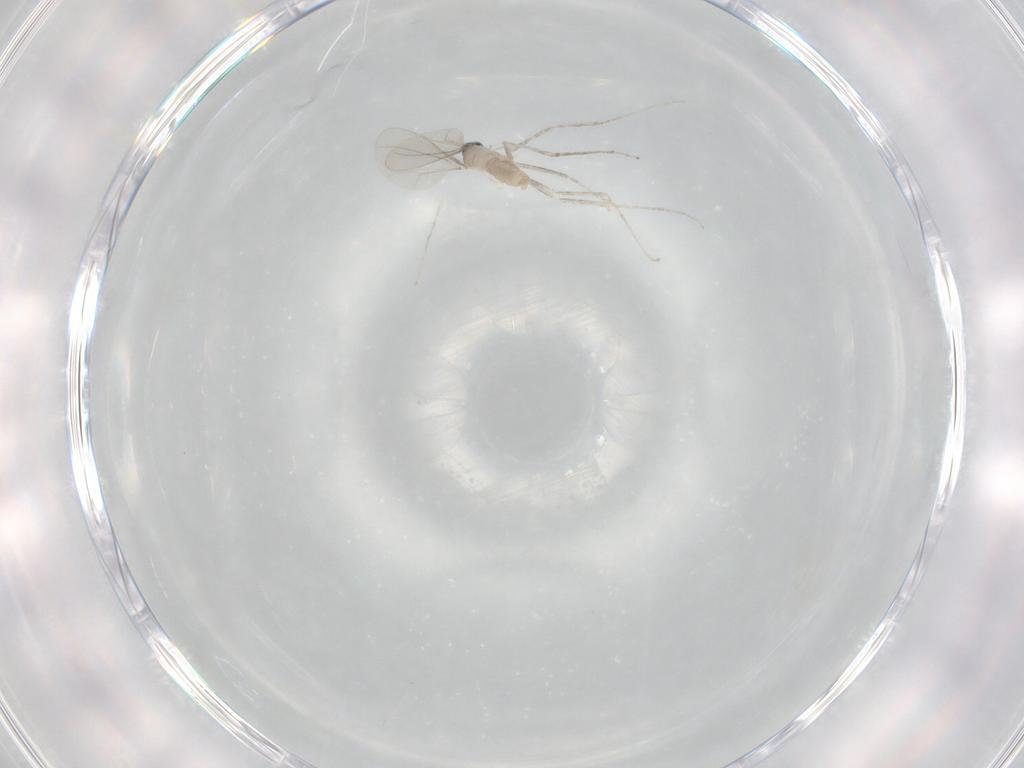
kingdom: Animalia
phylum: Arthropoda
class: Insecta
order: Diptera
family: Cecidomyiidae
